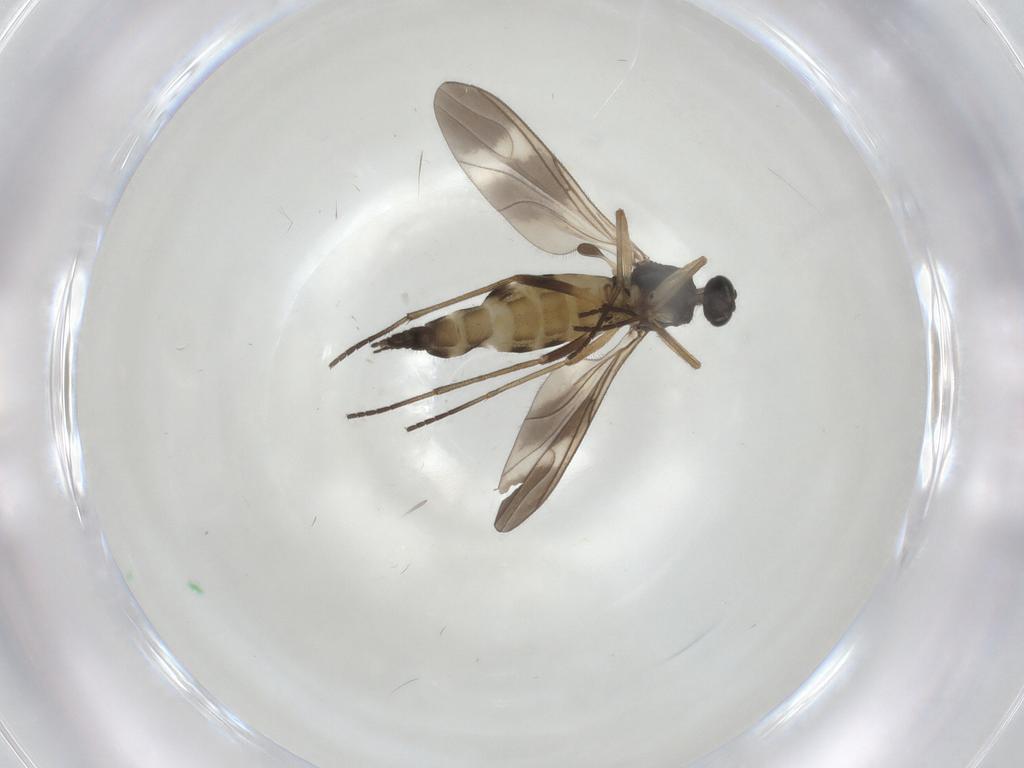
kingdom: Animalia
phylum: Arthropoda
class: Insecta
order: Diptera
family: Sciaridae
